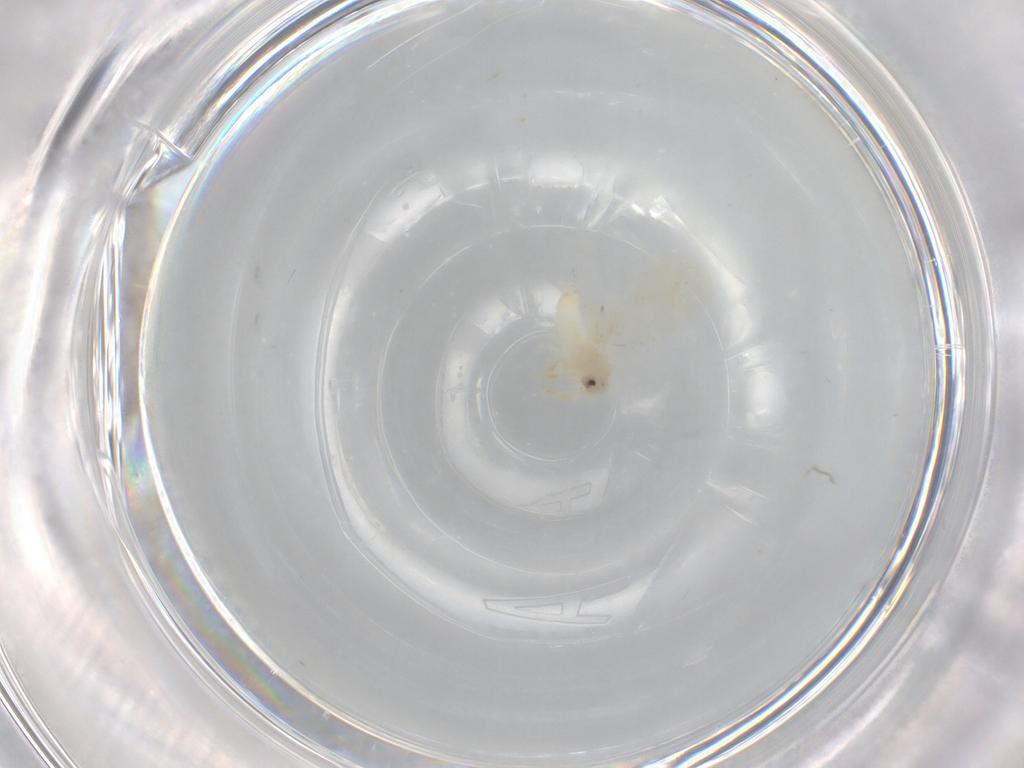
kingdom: Animalia
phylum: Arthropoda
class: Insecta
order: Hemiptera
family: Aleyrodidae
